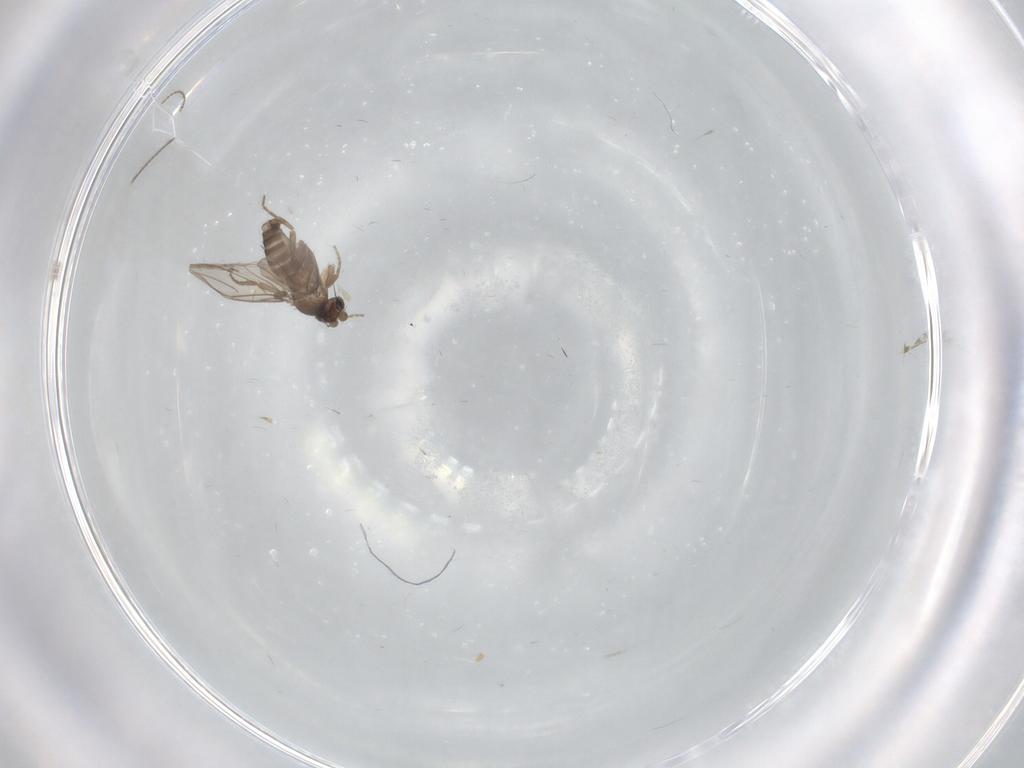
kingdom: Animalia
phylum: Arthropoda
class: Insecta
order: Diptera
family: Phoridae
